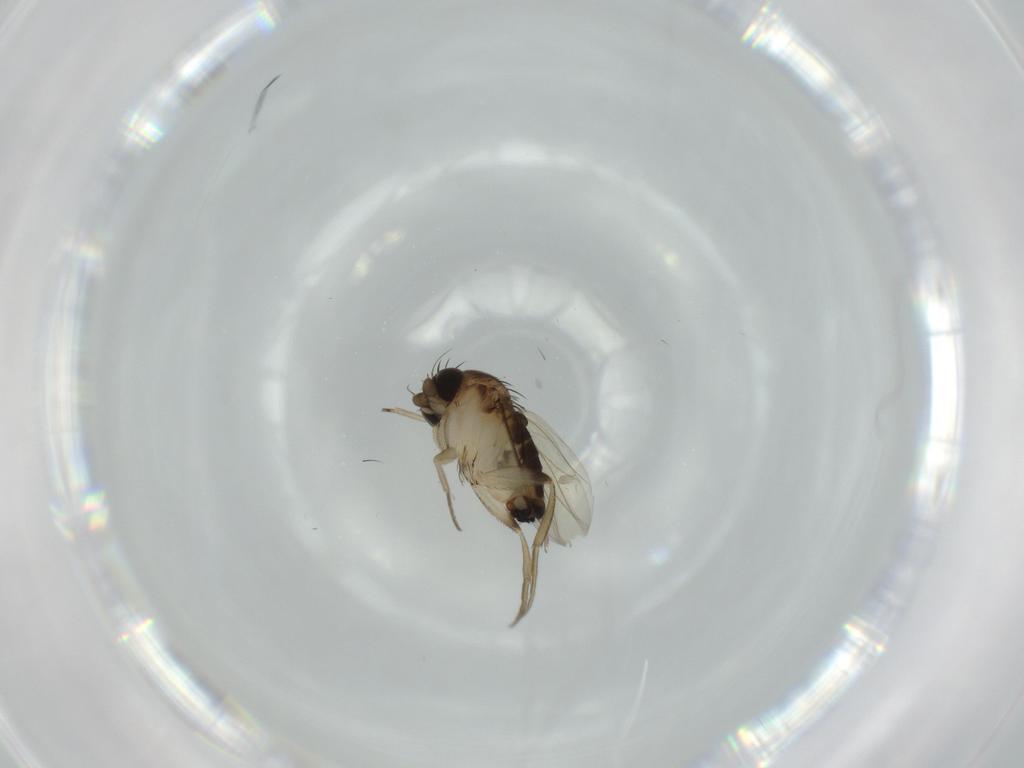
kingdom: Animalia
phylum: Arthropoda
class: Insecta
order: Diptera
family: Phoridae
